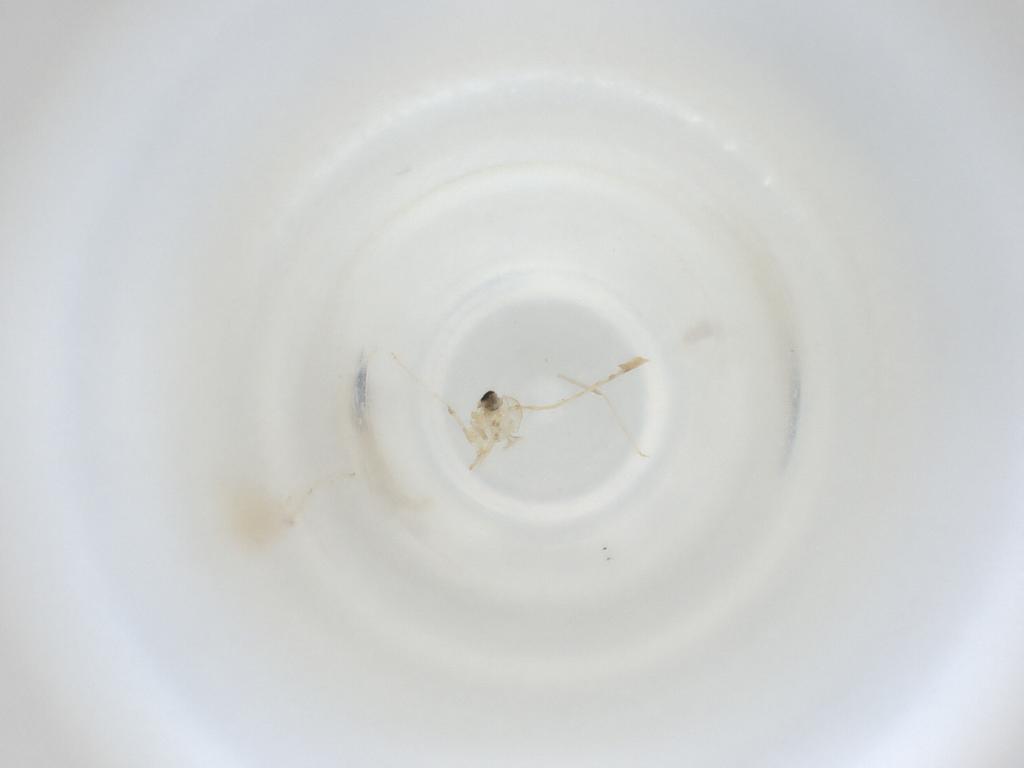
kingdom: Animalia
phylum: Arthropoda
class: Insecta
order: Diptera
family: Cecidomyiidae
